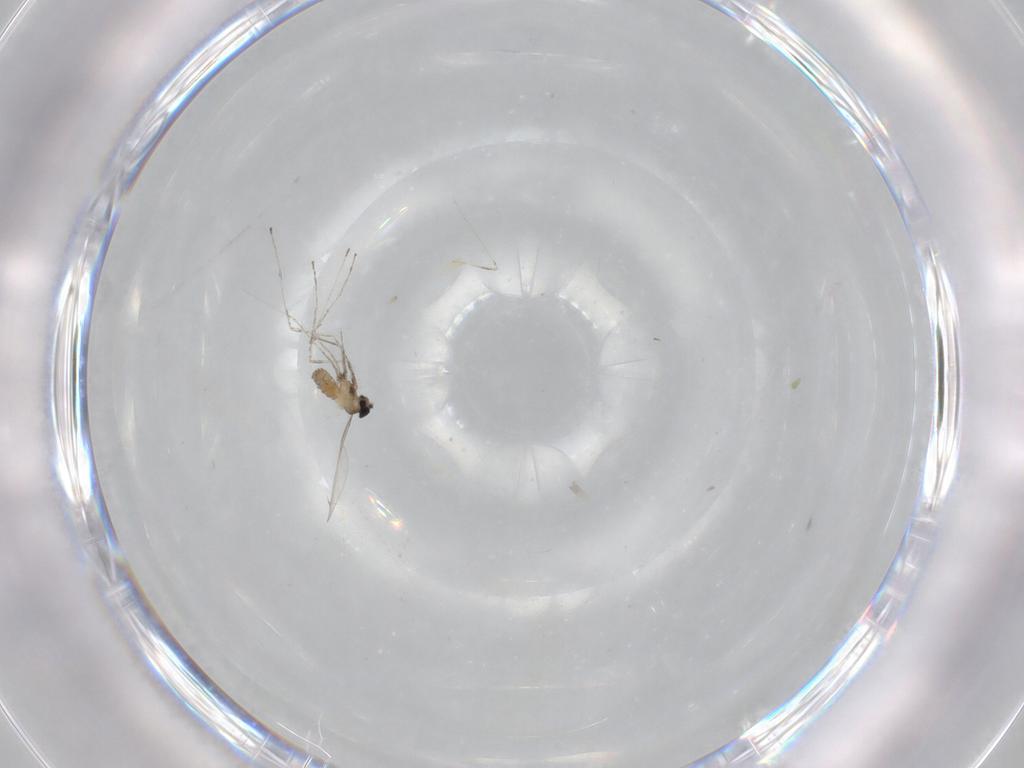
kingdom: Animalia
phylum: Arthropoda
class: Insecta
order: Diptera
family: Cecidomyiidae
